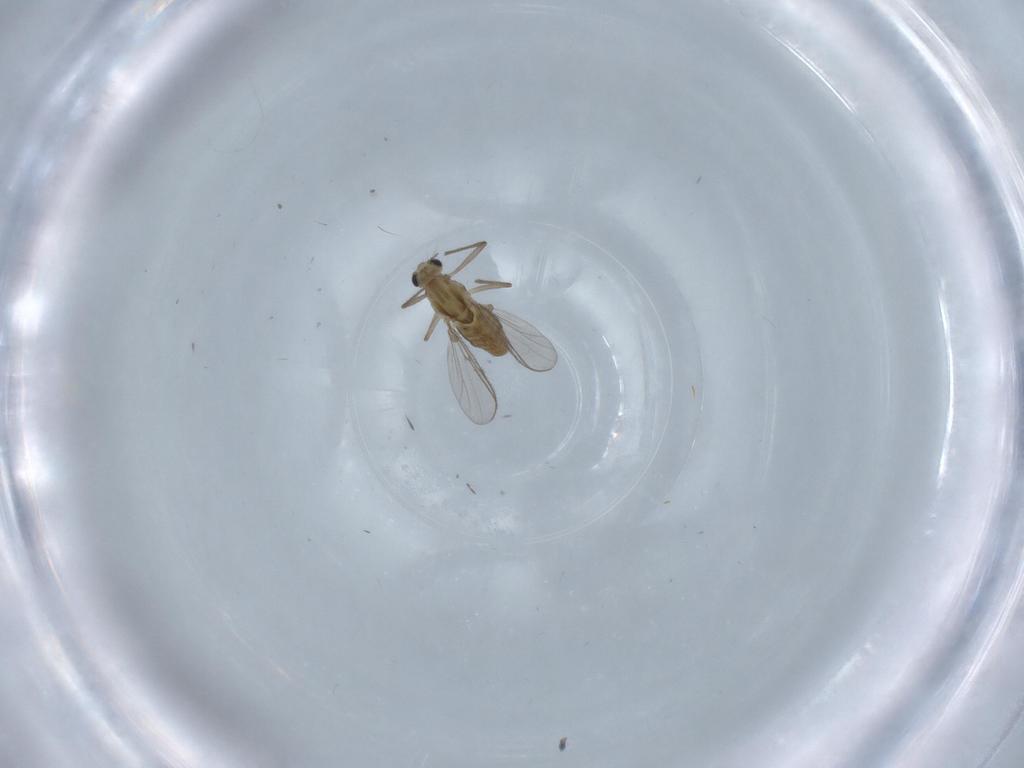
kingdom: Animalia
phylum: Arthropoda
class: Insecta
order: Diptera
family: Chironomidae
